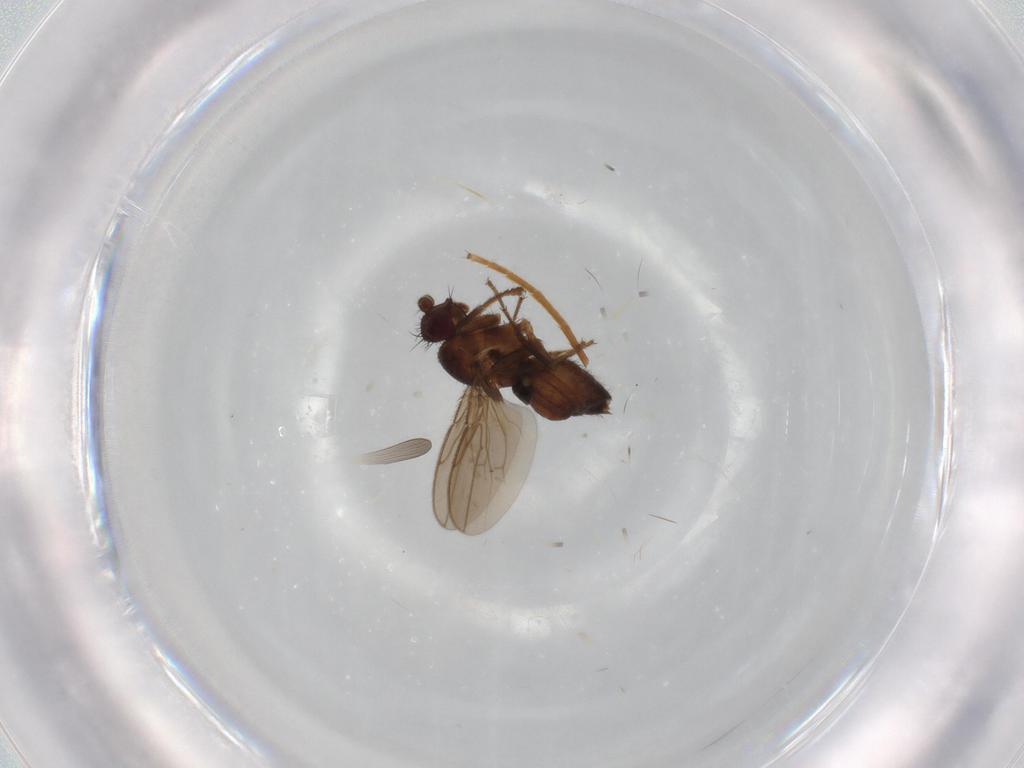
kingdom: Animalia
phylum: Arthropoda
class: Insecta
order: Diptera
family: Sphaeroceridae
